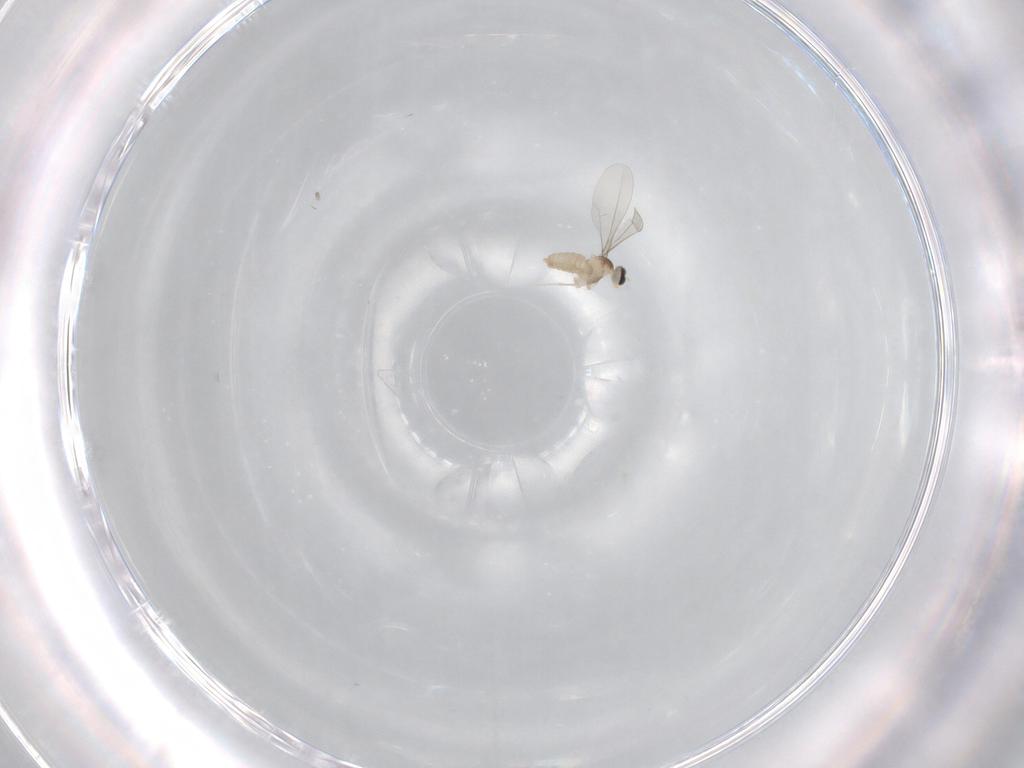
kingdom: Animalia
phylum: Arthropoda
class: Insecta
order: Diptera
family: Cecidomyiidae
